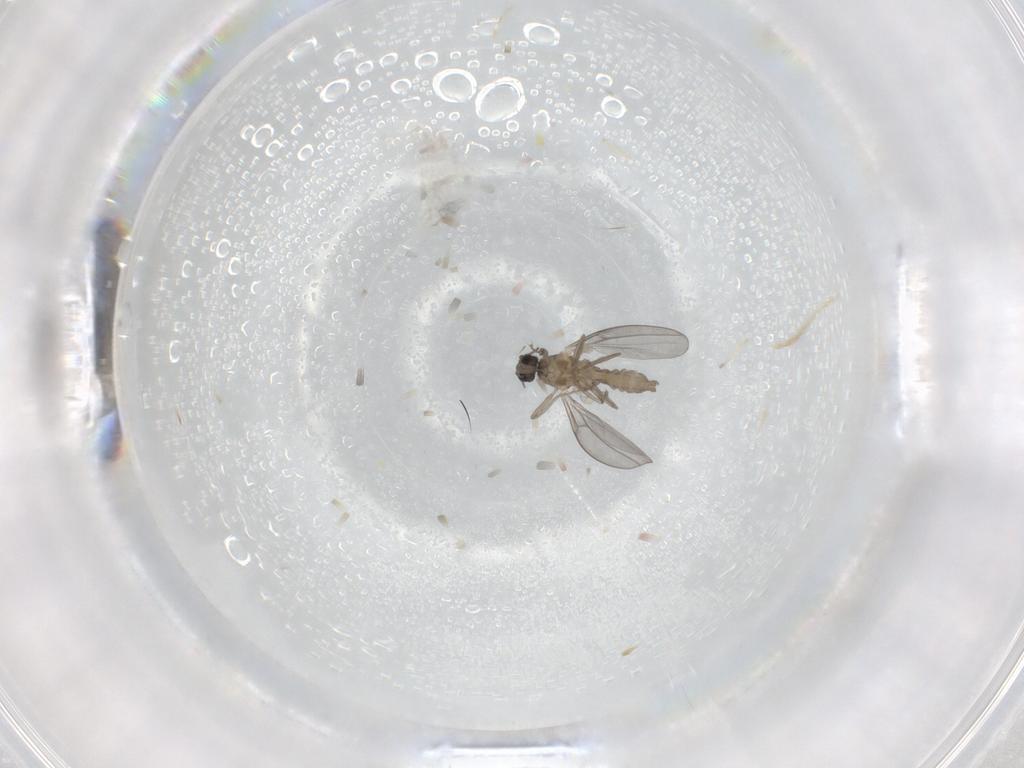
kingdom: Animalia
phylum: Arthropoda
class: Insecta
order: Diptera
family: Cecidomyiidae
